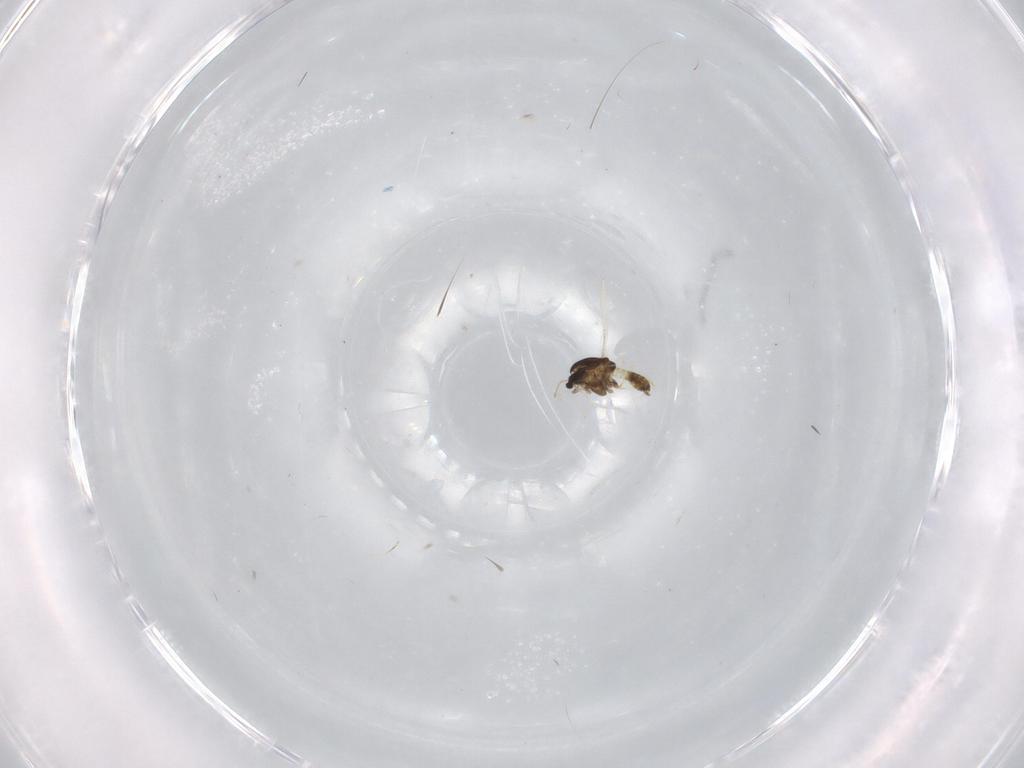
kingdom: Animalia
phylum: Arthropoda
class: Insecta
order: Diptera
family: Chironomidae
